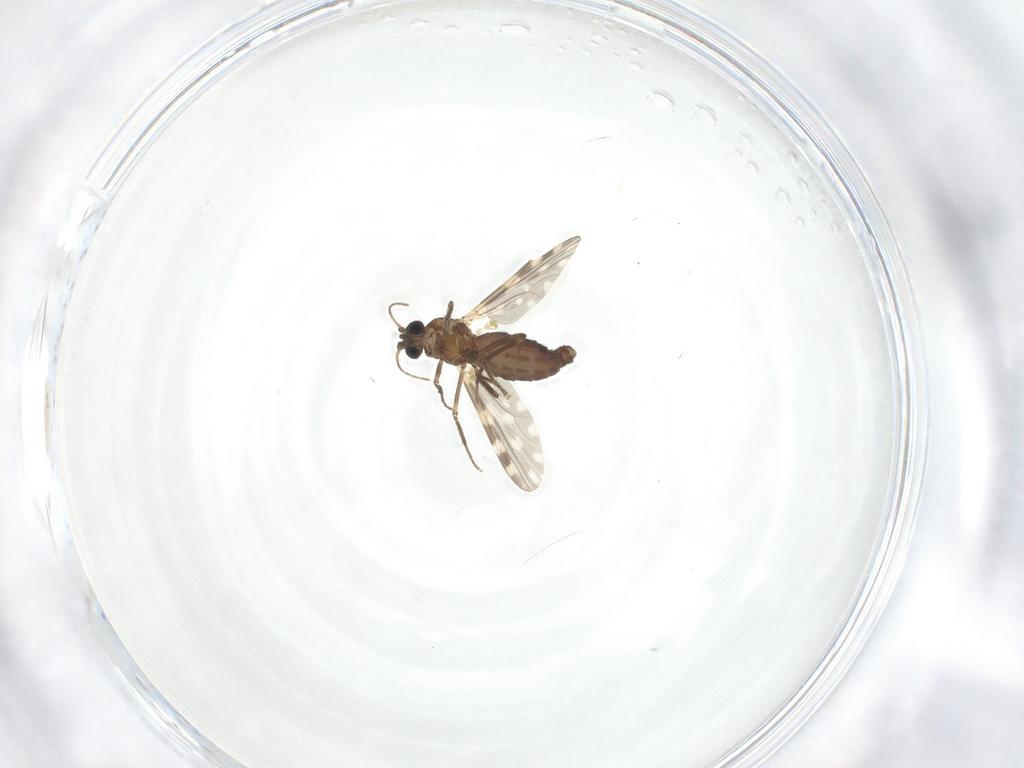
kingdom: Animalia
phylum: Arthropoda
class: Insecta
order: Diptera
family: Ceratopogonidae
